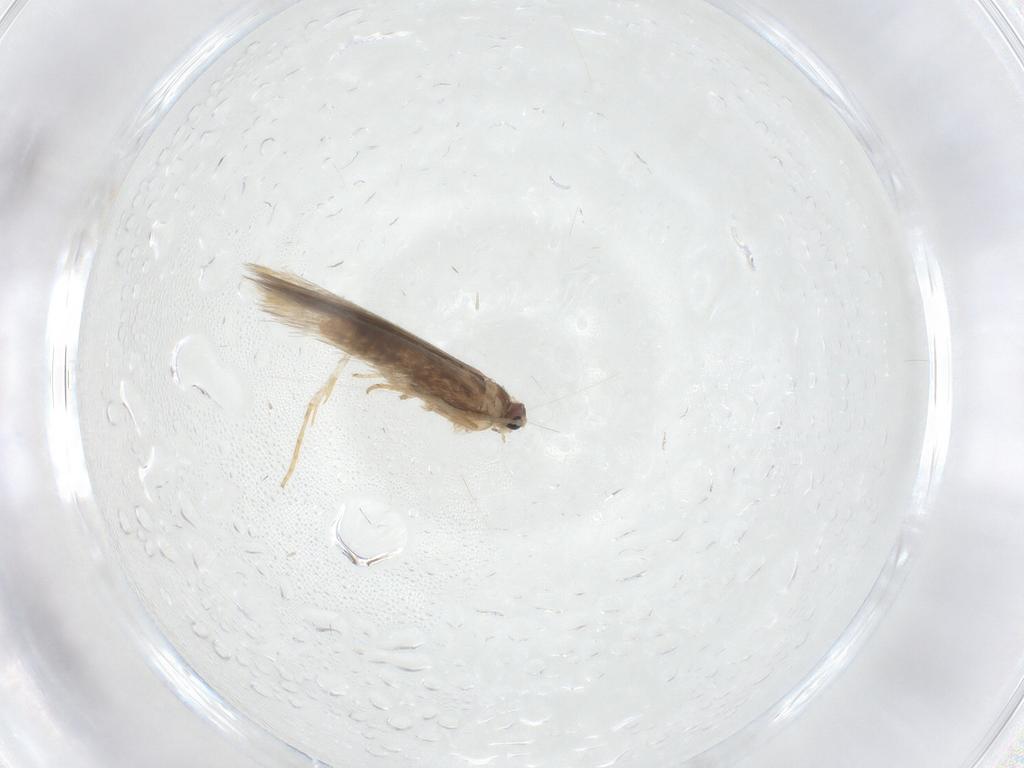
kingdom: Animalia
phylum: Arthropoda
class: Insecta
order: Lepidoptera
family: Nepticulidae
